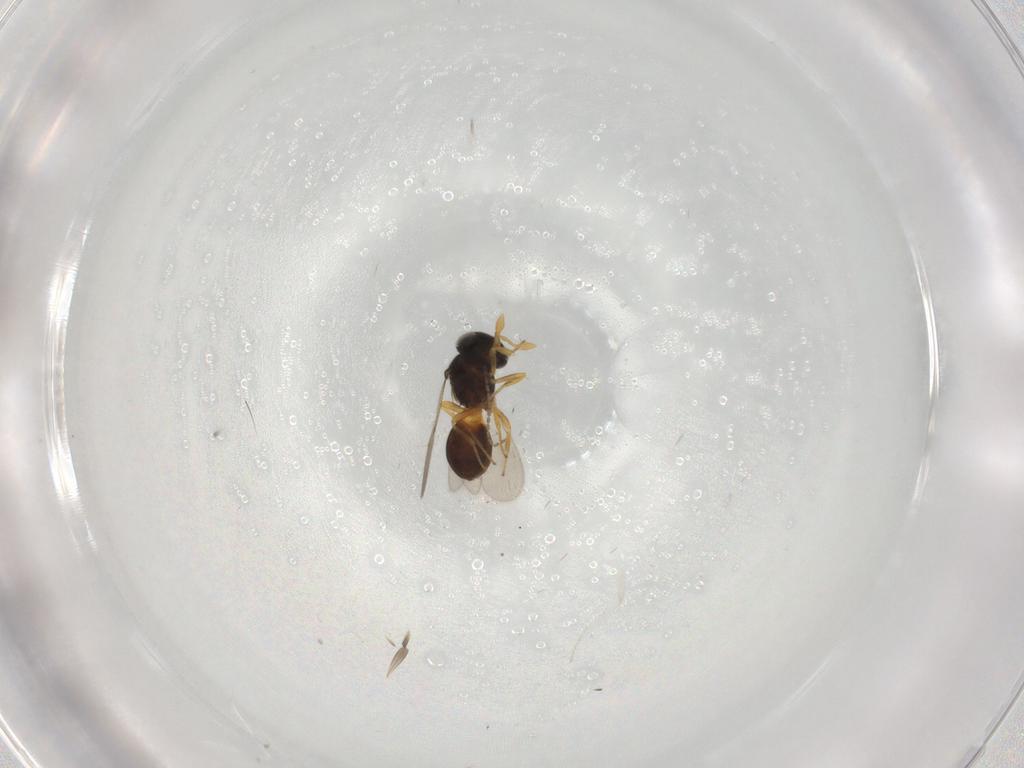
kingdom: Animalia
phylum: Arthropoda
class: Insecta
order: Hymenoptera
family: Scelionidae
